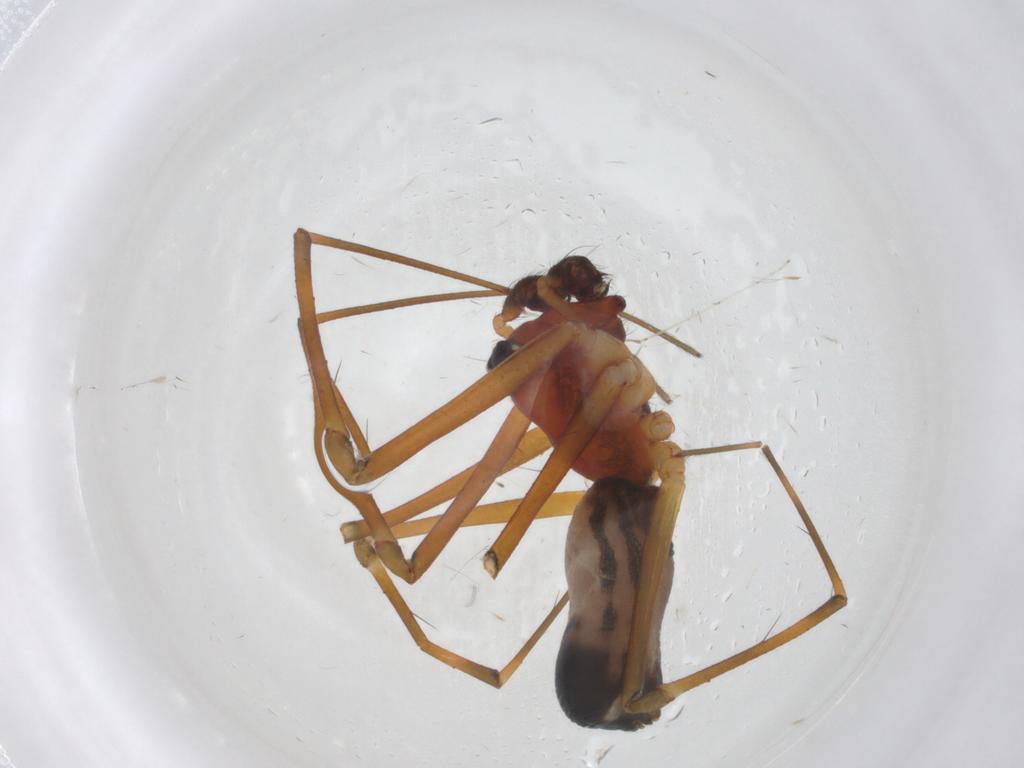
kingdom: Animalia
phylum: Arthropoda
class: Arachnida
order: Araneae
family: Linyphiidae
